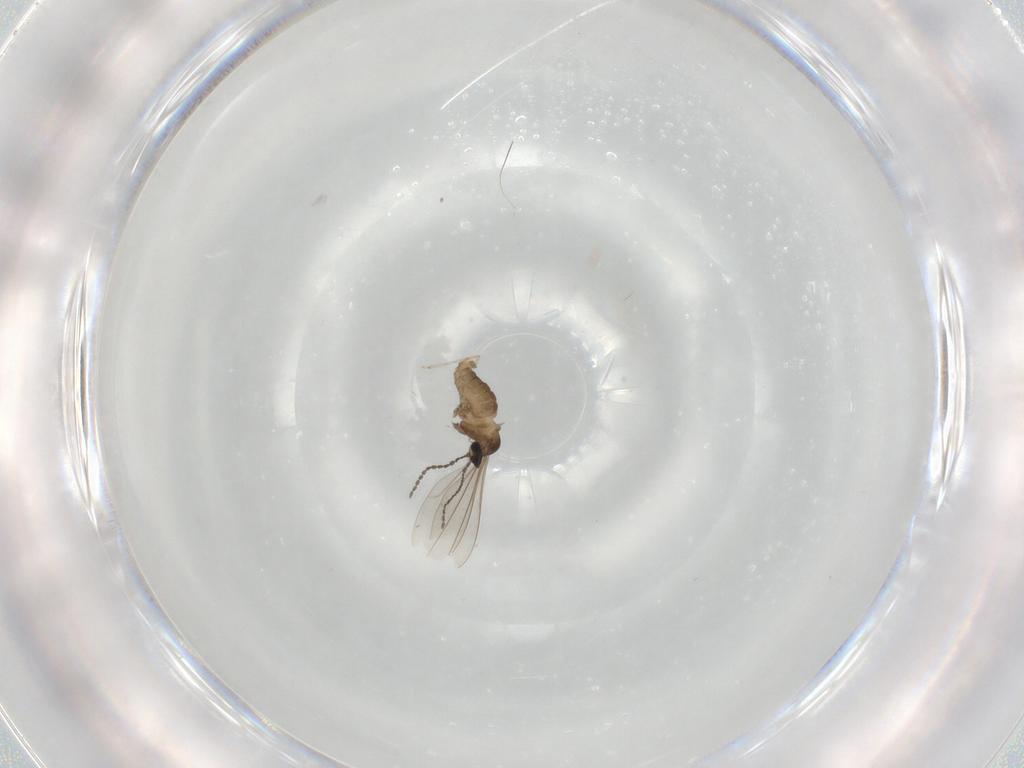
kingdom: Animalia
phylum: Arthropoda
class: Insecta
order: Diptera
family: Cecidomyiidae
